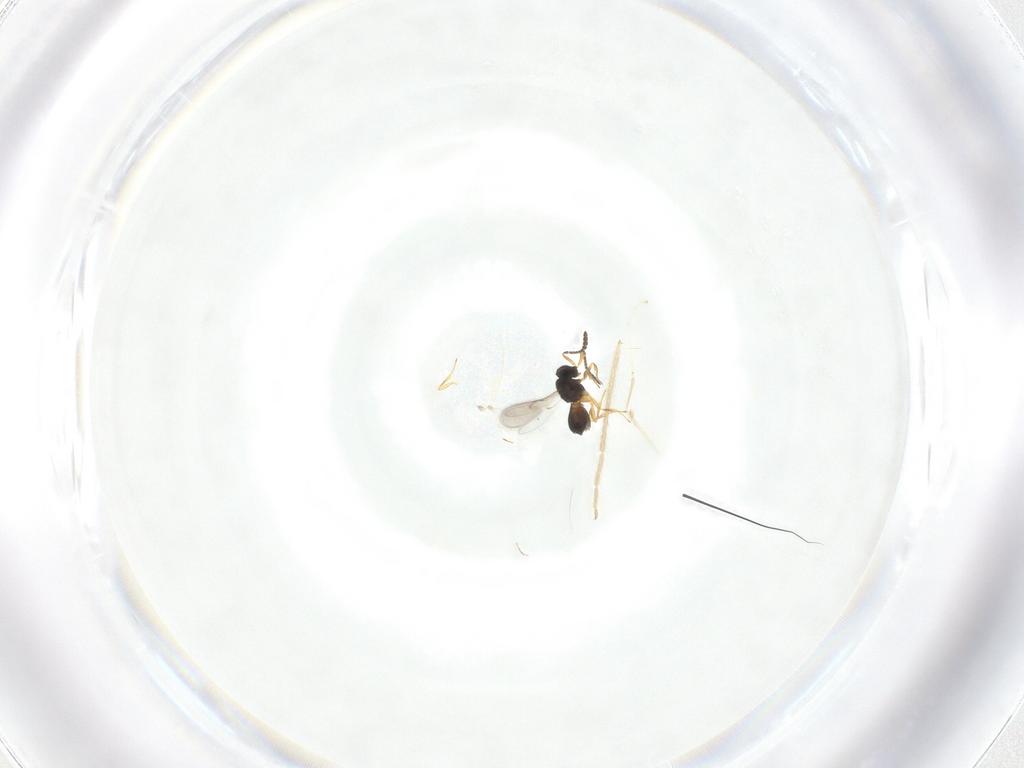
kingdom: Animalia
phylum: Arthropoda
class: Insecta
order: Hymenoptera
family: Scelionidae
